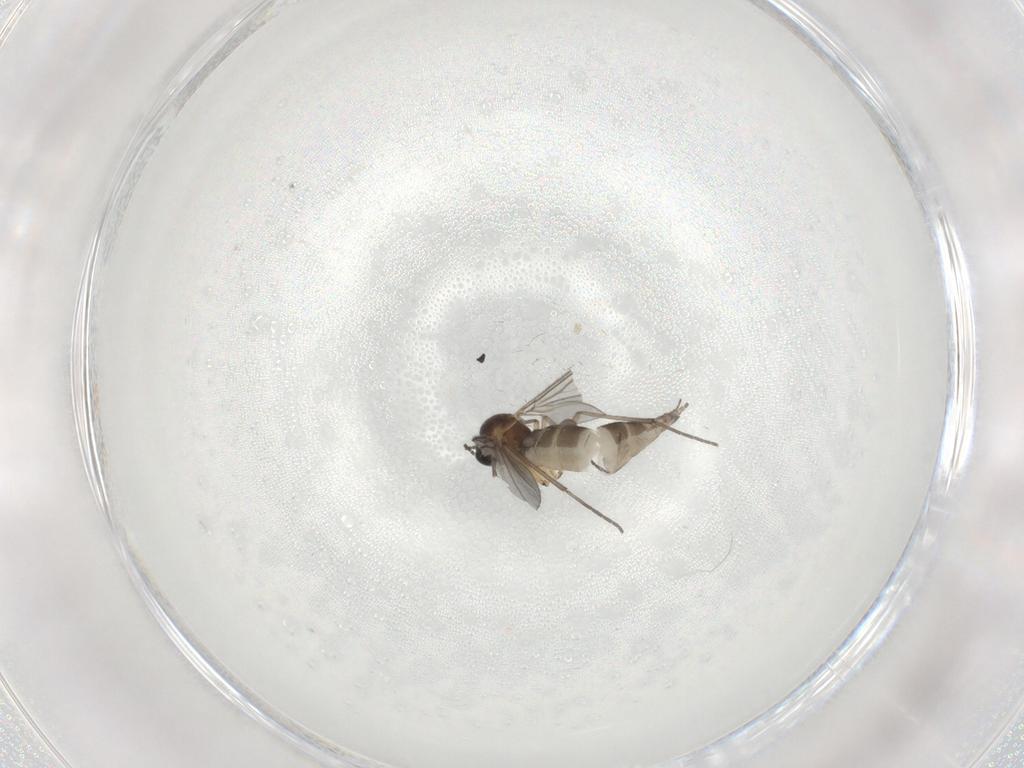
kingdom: Animalia
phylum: Arthropoda
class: Insecta
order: Diptera
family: Sciaridae
